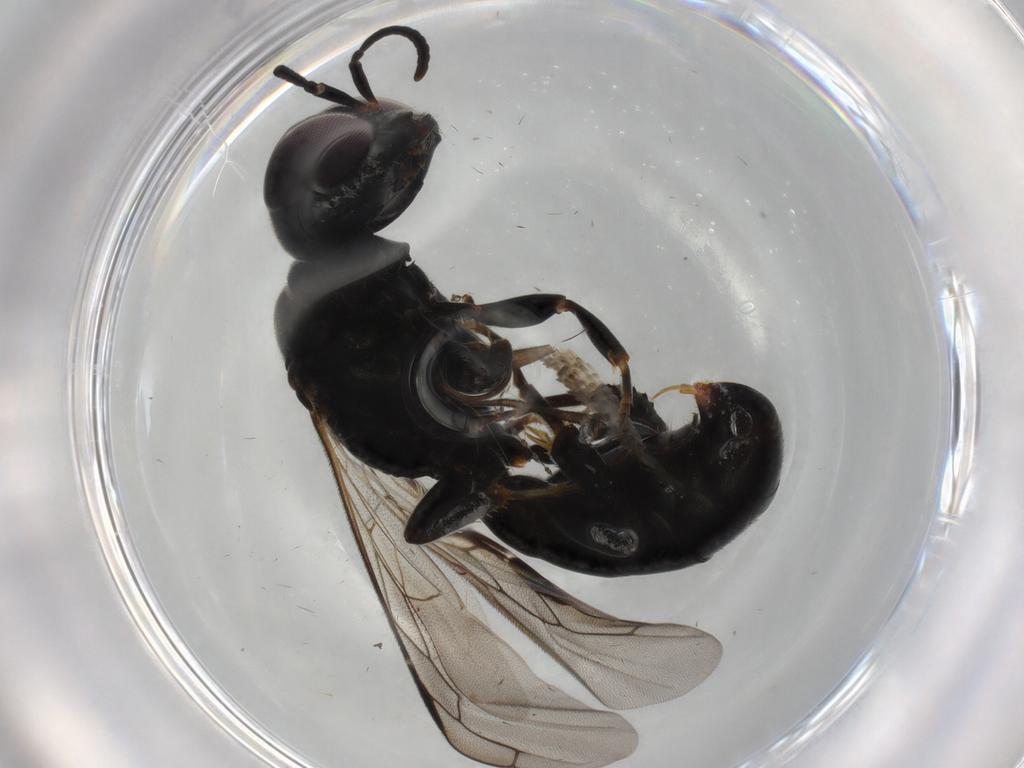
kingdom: Animalia
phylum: Arthropoda
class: Insecta
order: Hymenoptera
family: Crabronidae
